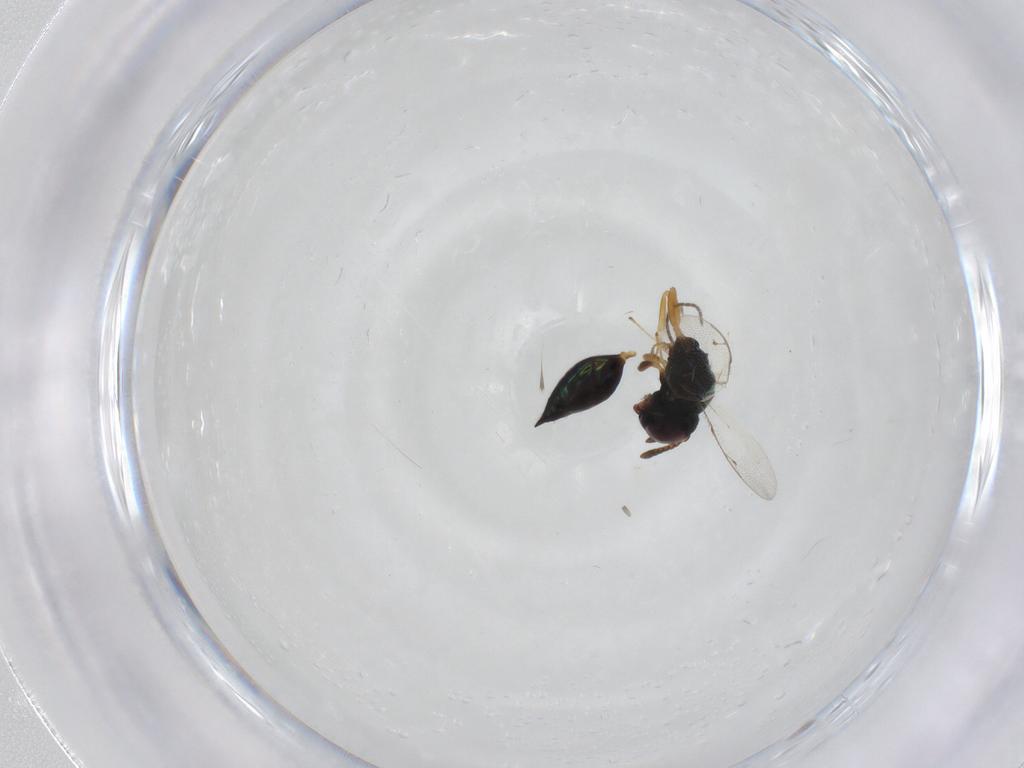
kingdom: Animalia
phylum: Arthropoda
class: Insecta
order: Hymenoptera
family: Pteromalidae
